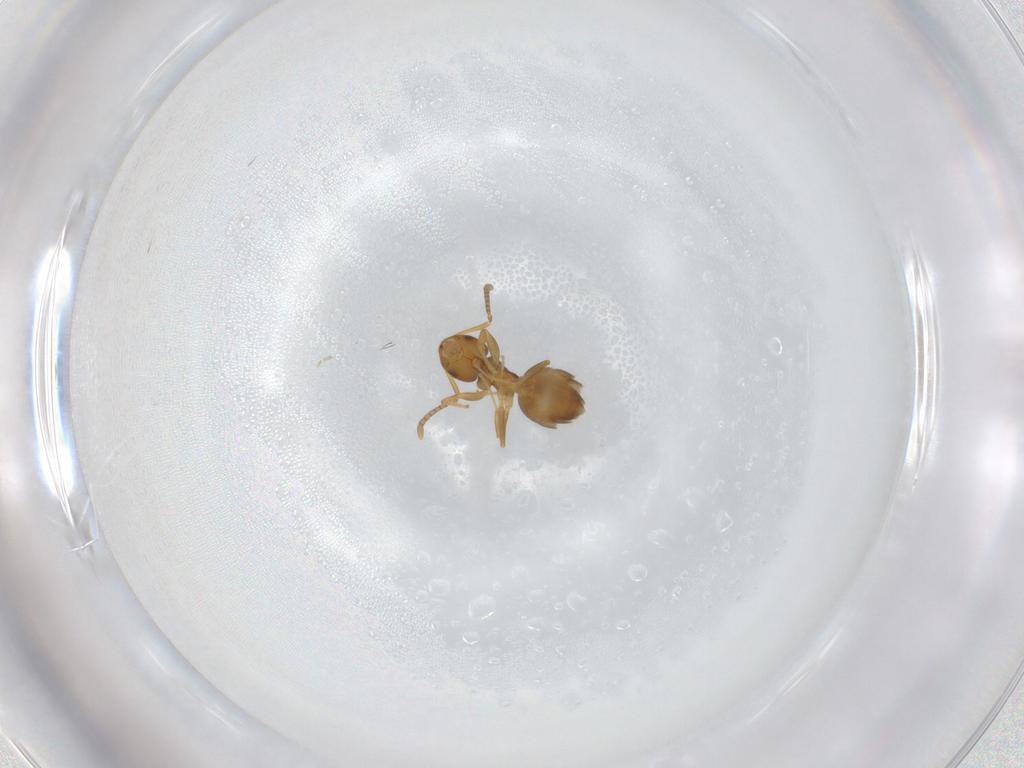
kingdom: Animalia
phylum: Arthropoda
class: Insecta
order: Hymenoptera
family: Formicidae
